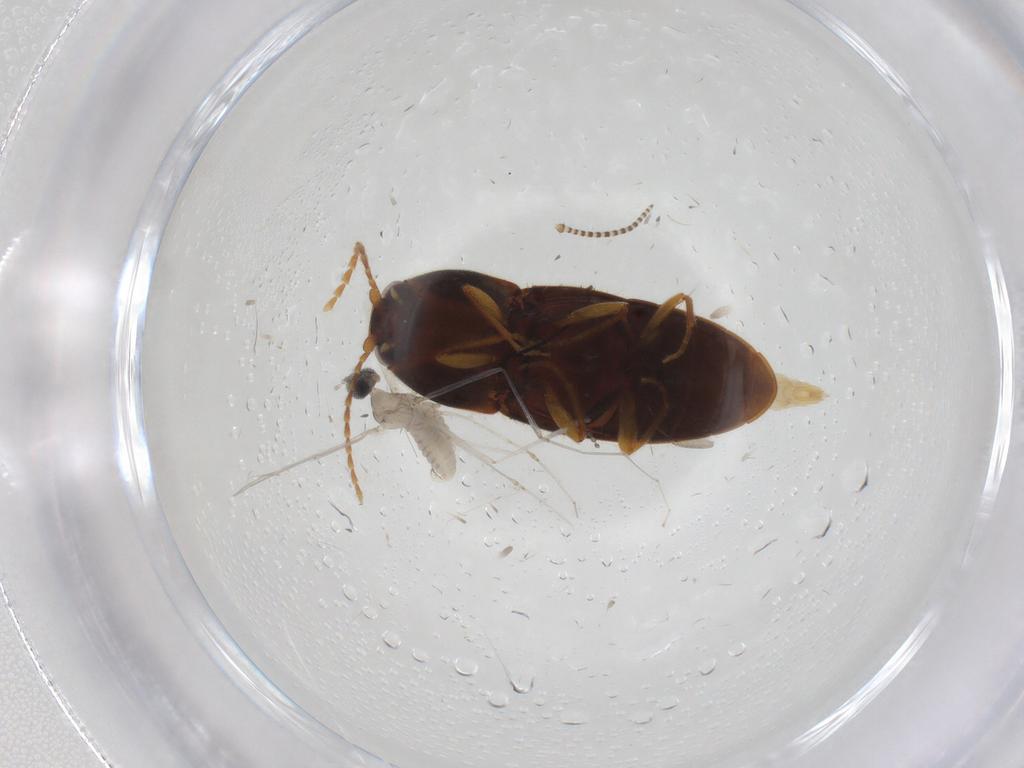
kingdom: Animalia
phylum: Arthropoda
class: Insecta
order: Diptera
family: Cecidomyiidae
